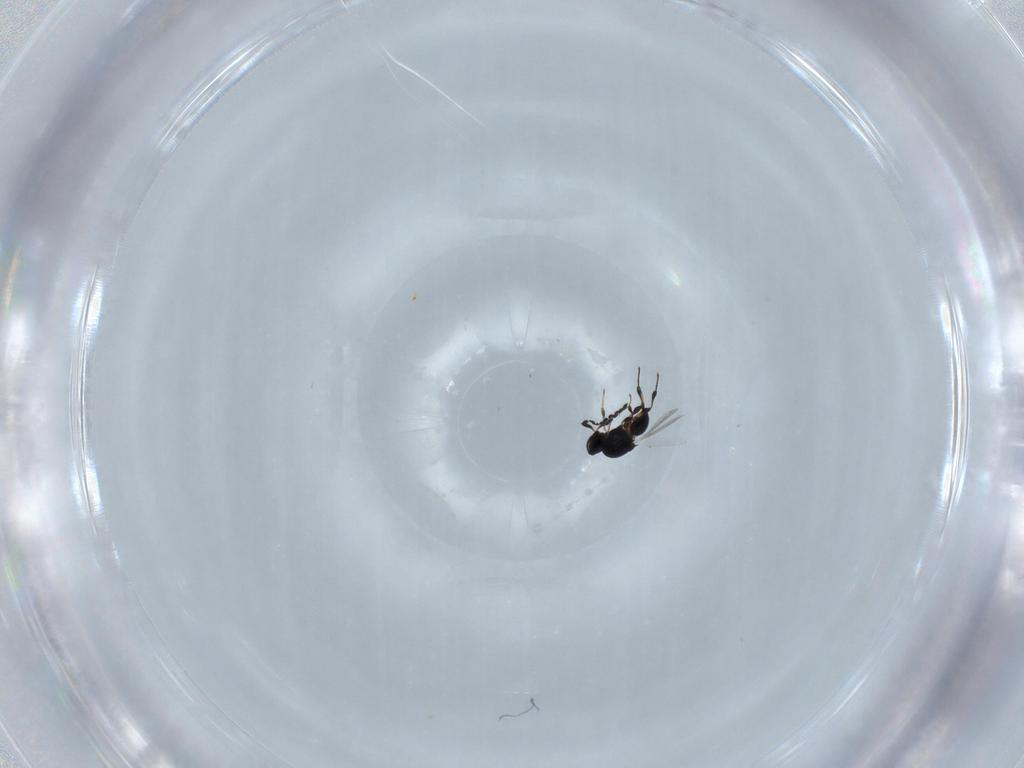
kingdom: Animalia
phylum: Arthropoda
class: Insecta
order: Hymenoptera
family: Platygastridae
